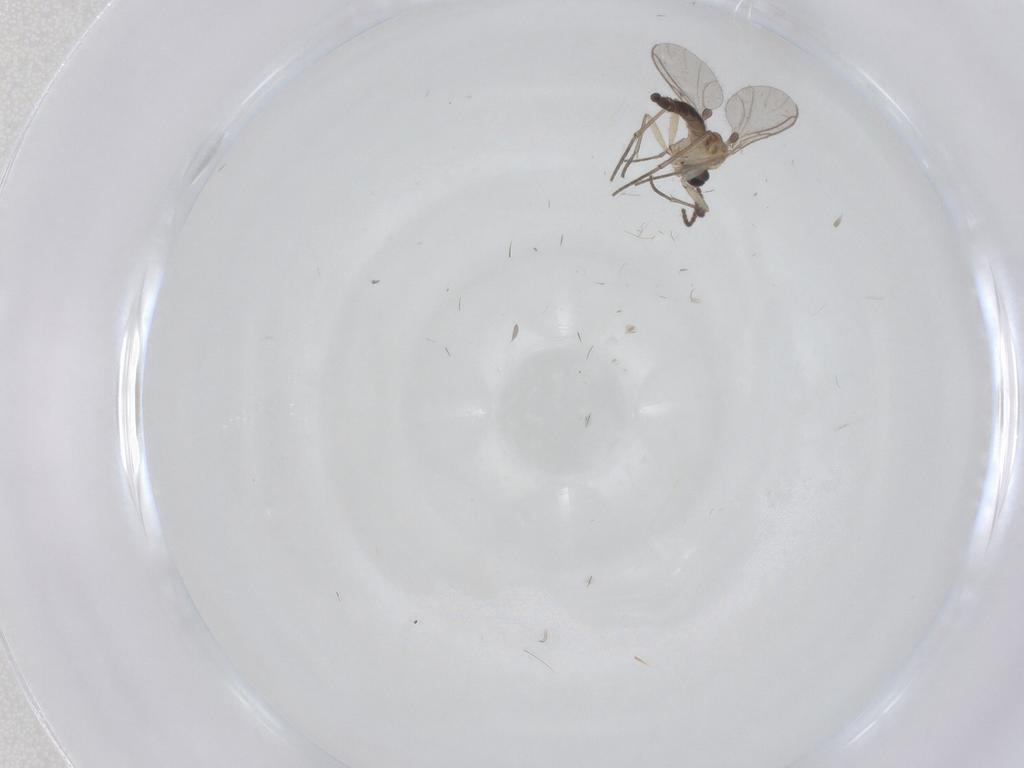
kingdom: Animalia
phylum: Arthropoda
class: Insecta
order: Diptera
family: Sciaridae
